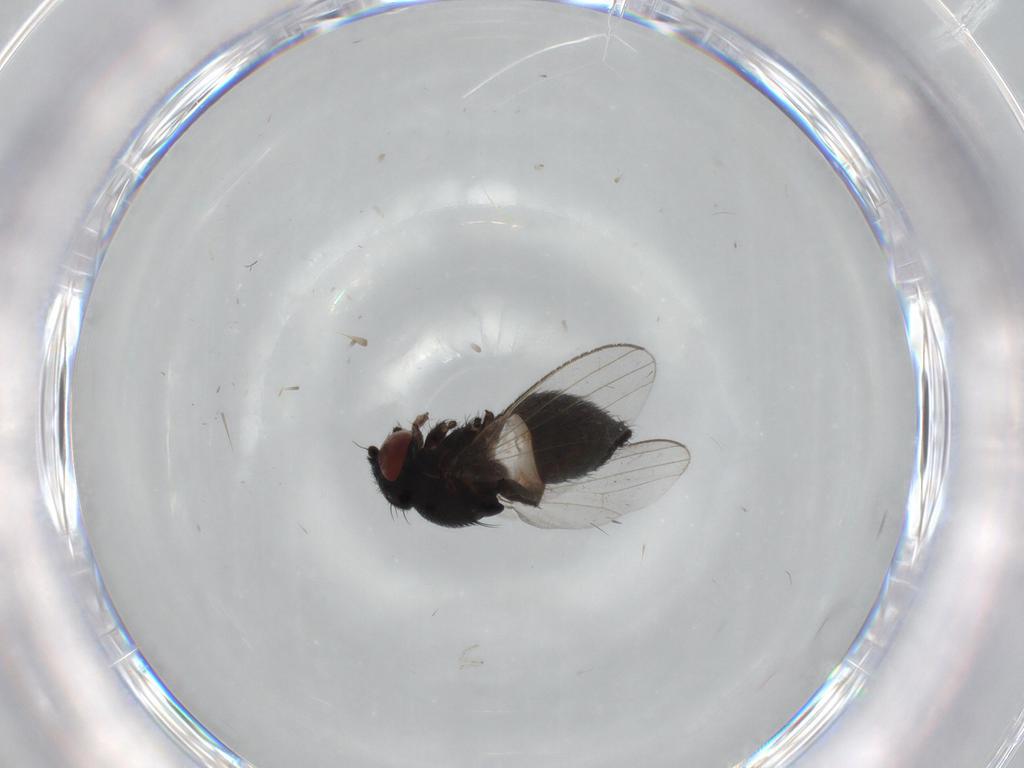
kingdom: Animalia
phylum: Arthropoda
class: Insecta
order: Diptera
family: Milichiidae
